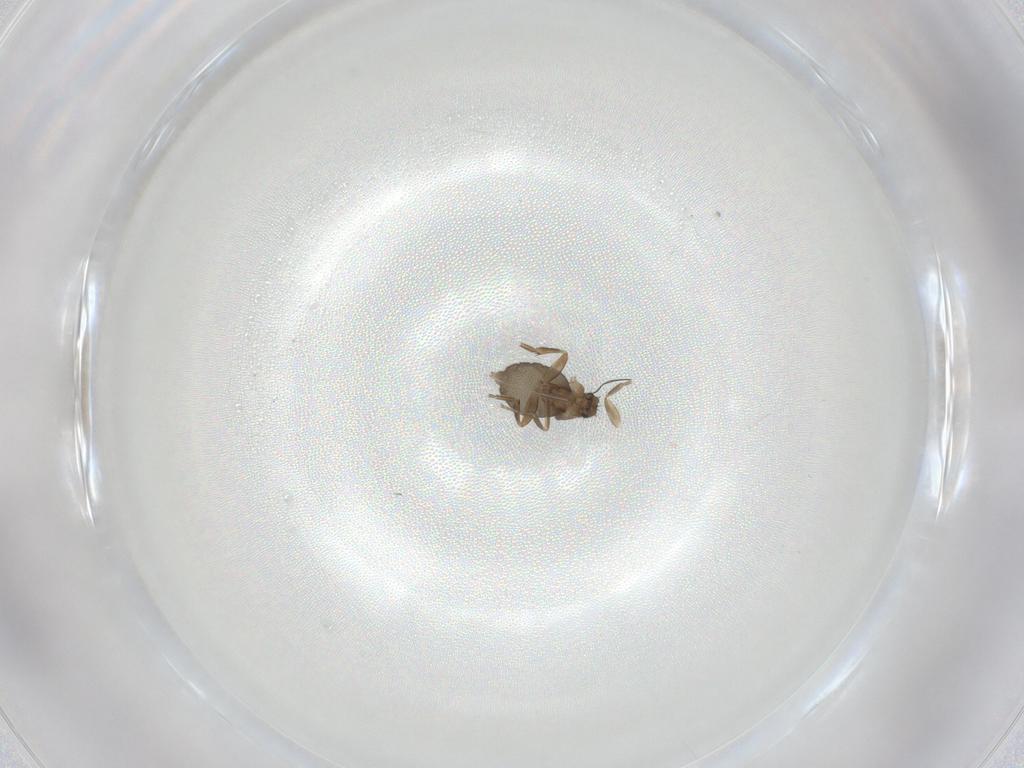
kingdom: Animalia
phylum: Arthropoda
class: Insecta
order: Diptera
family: Phoridae
